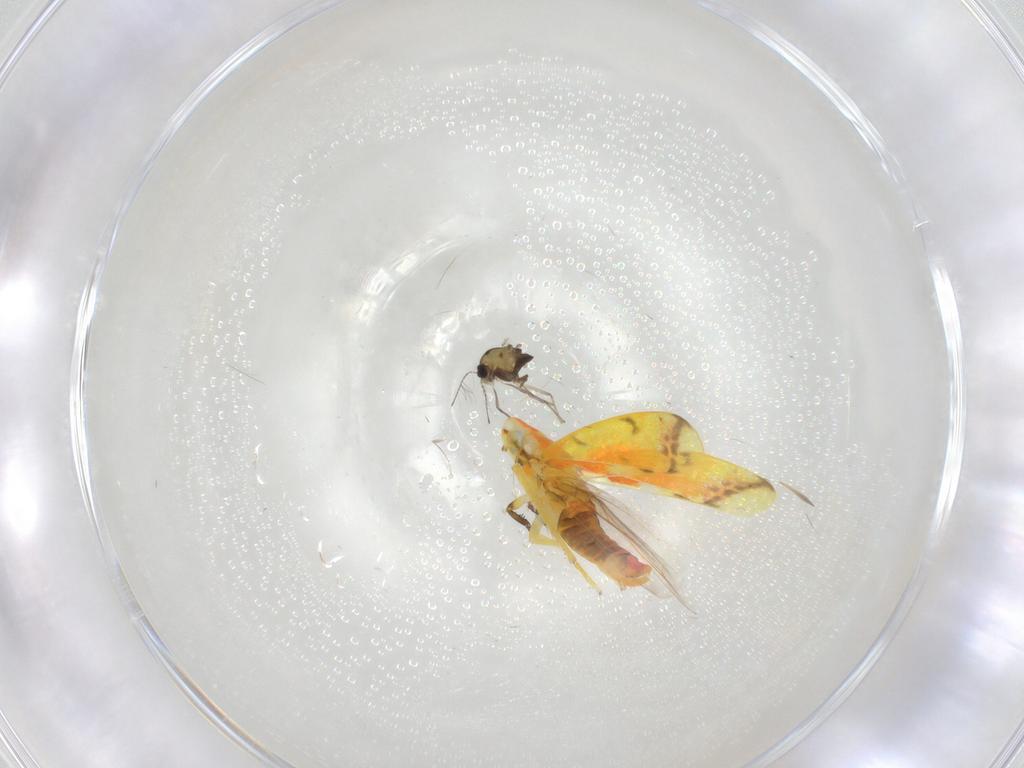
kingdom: Animalia
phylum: Arthropoda
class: Insecta
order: Diptera
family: Chironomidae
